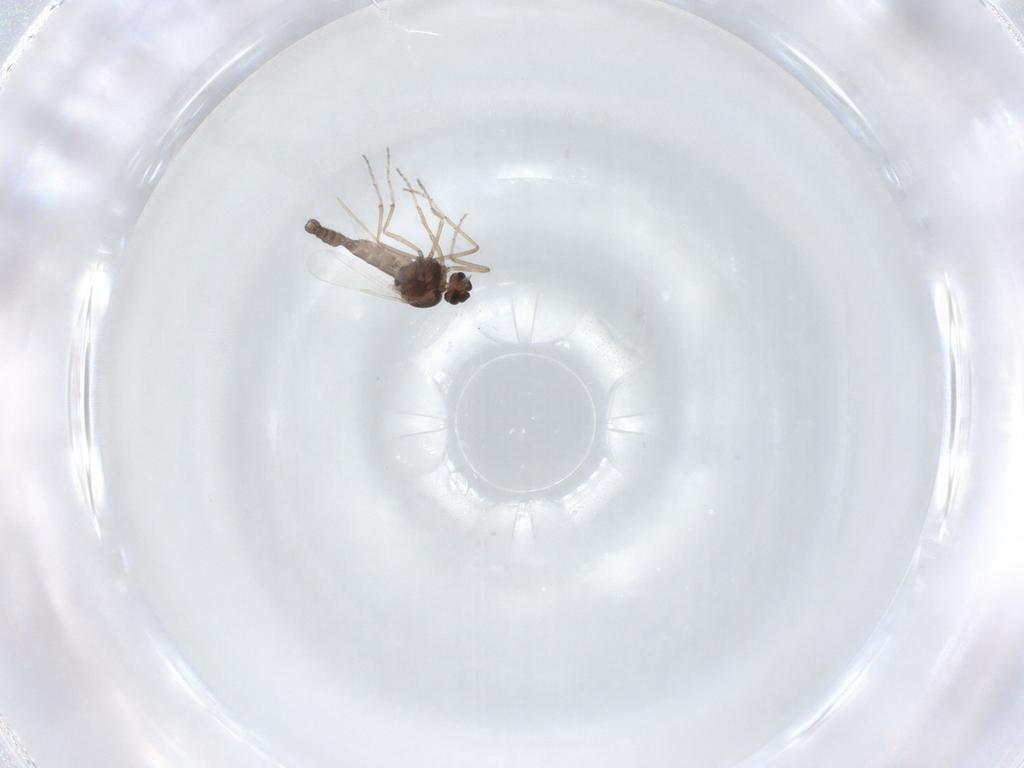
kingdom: Animalia
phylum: Arthropoda
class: Insecta
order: Diptera
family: Ceratopogonidae
